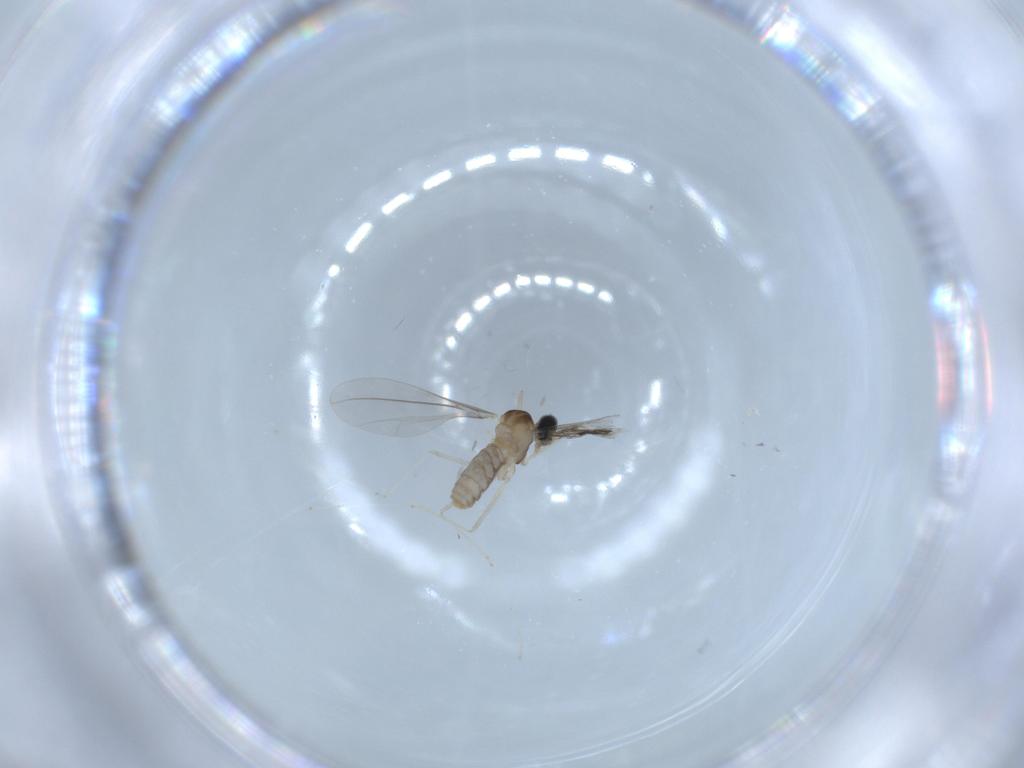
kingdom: Animalia
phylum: Arthropoda
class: Insecta
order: Diptera
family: Cecidomyiidae
